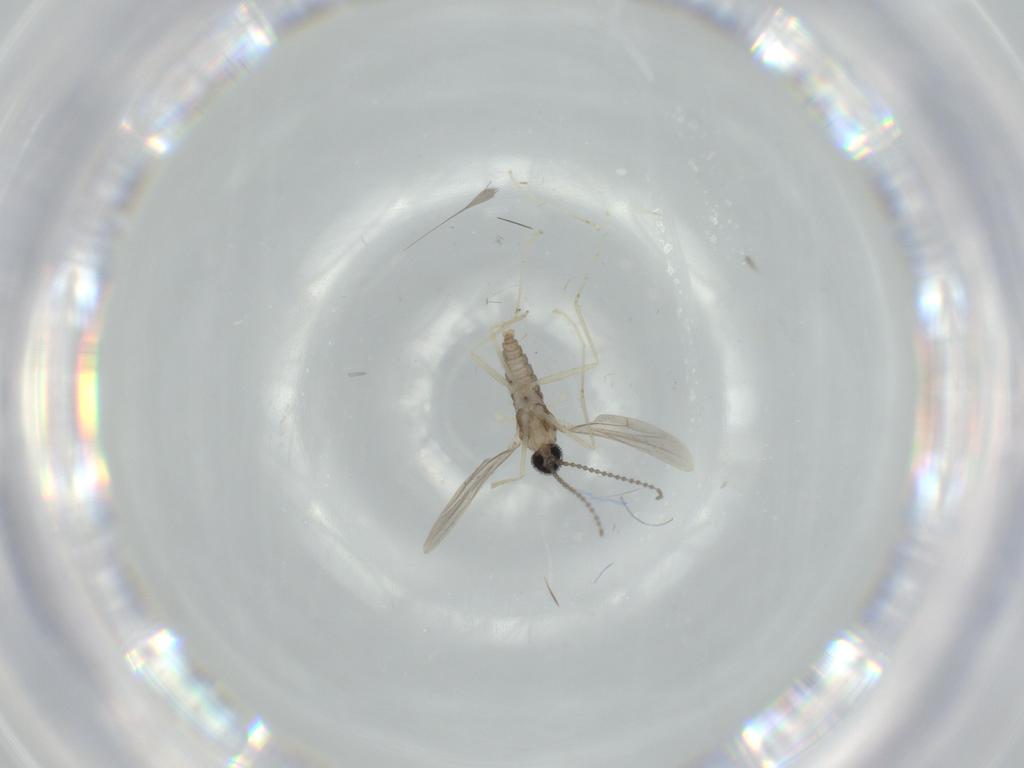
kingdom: Animalia
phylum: Arthropoda
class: Insecta
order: Diptera
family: Cecidomyiidae
